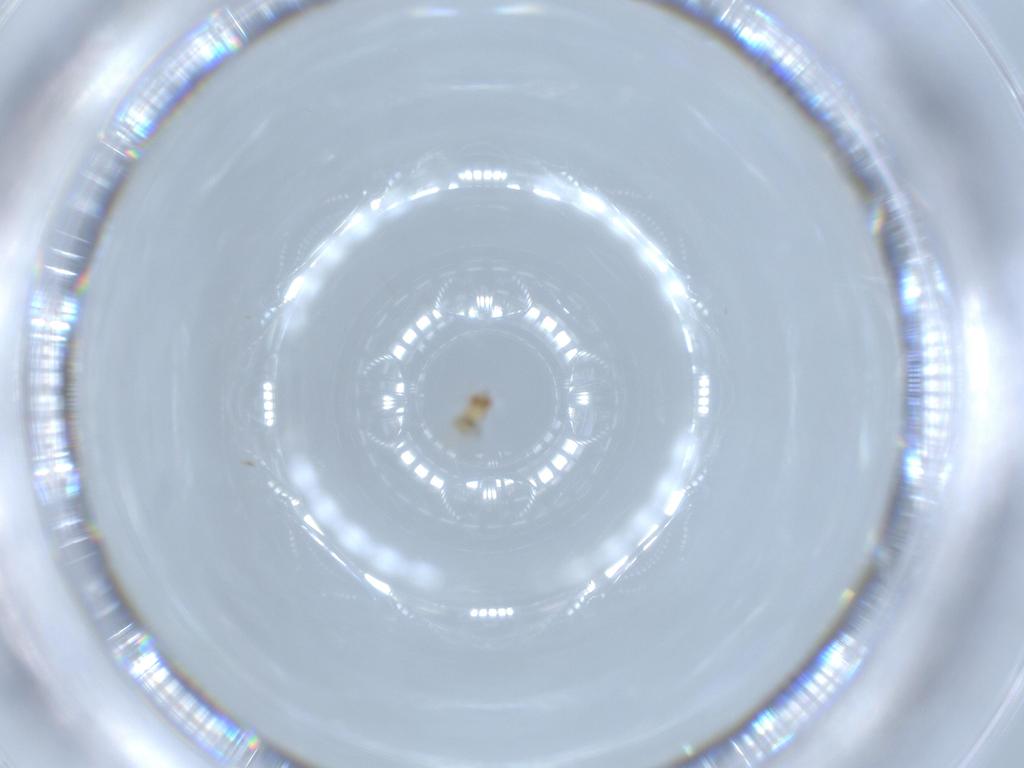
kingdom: Animalia
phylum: Arthropoda
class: Insecta
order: Hymenoptera
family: Trichogrammatidae
